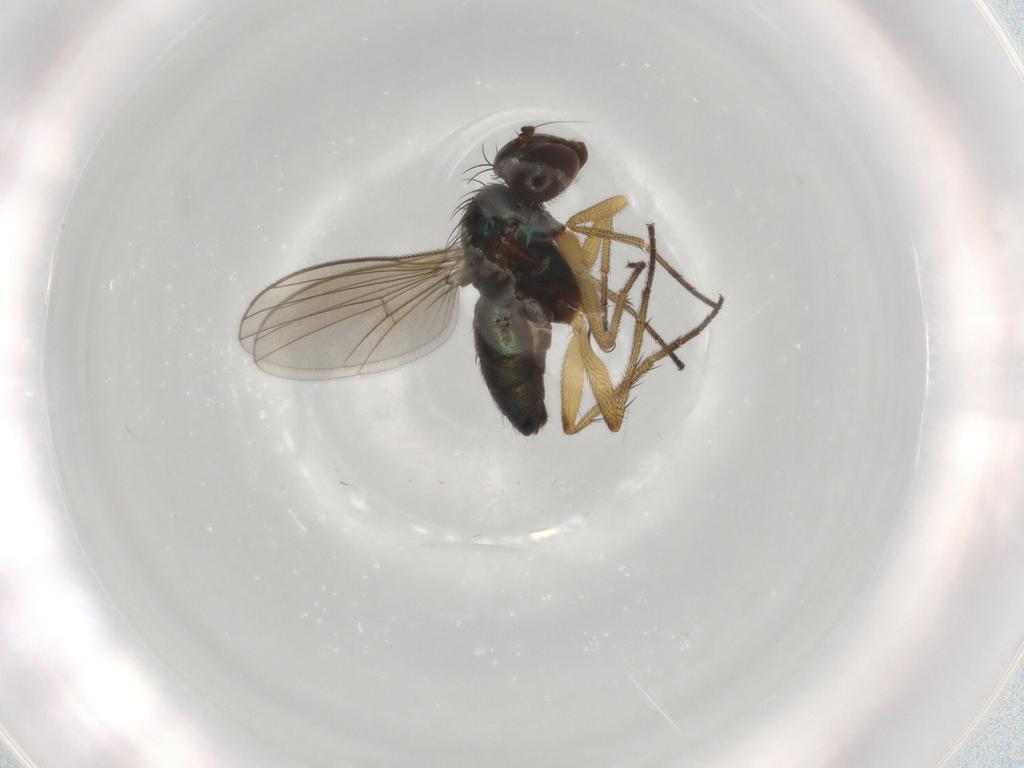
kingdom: Animalia
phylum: Arthropoda
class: Insecta
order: Diptera
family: Dolichopodidae
